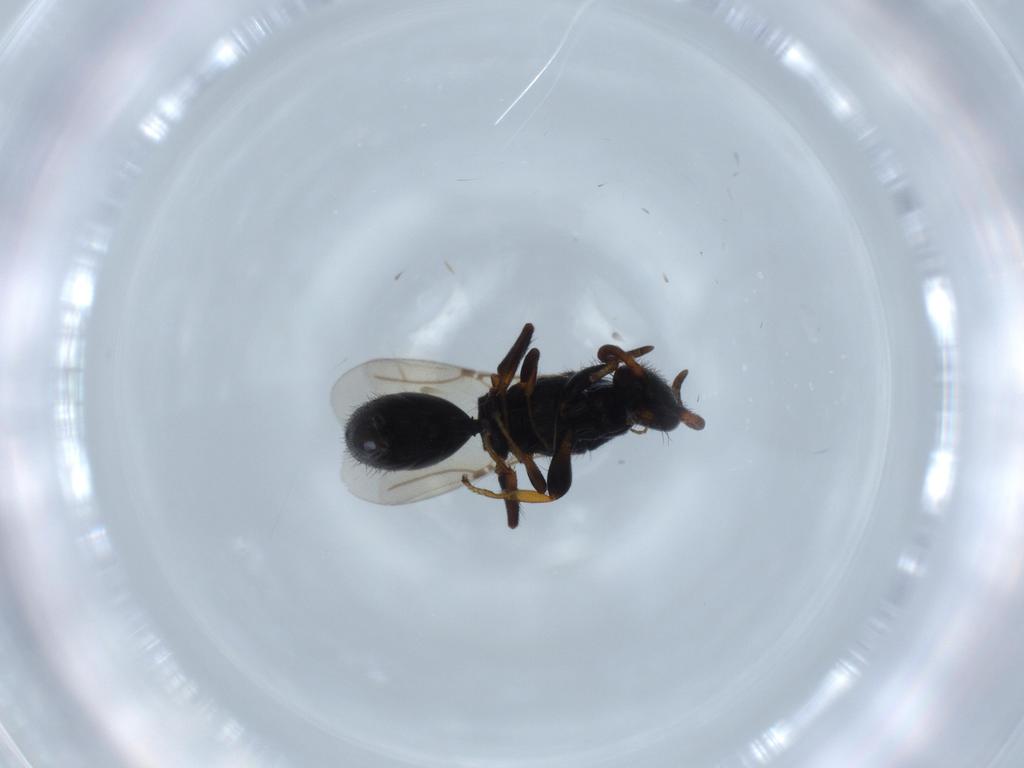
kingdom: Animalia
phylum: Arthropoda
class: Insecta
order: Hymenoptera
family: Bethylidae
